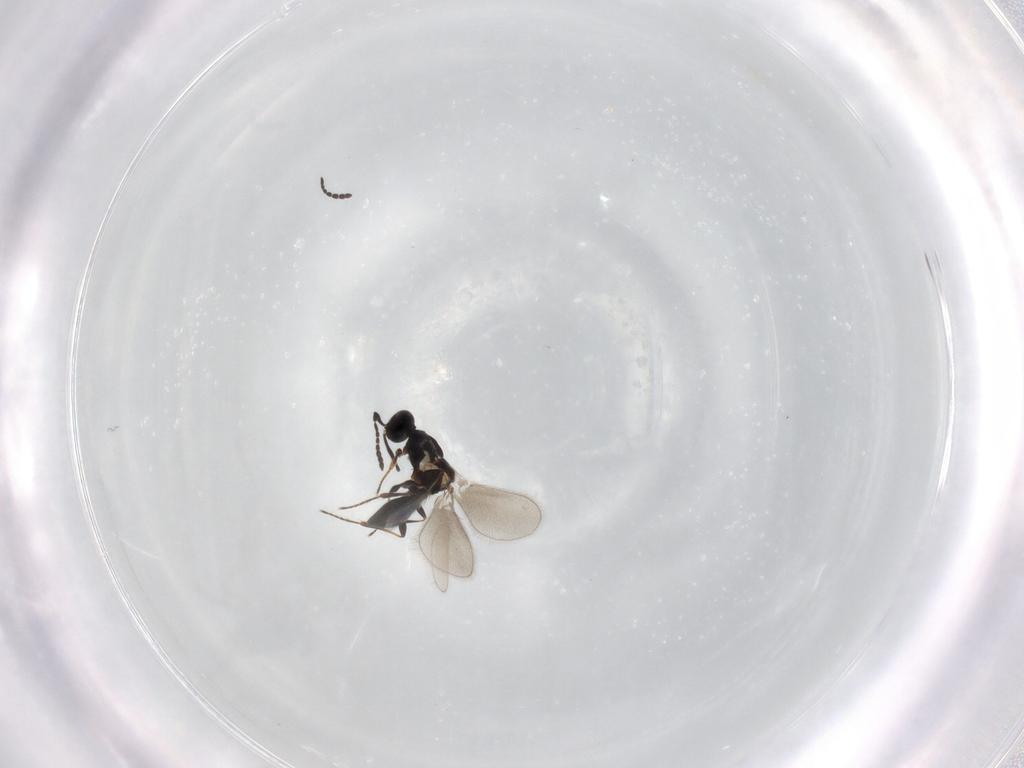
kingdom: Animalia
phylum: Arthropoda
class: Insecta
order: Hymenoptera
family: Platygastridae
